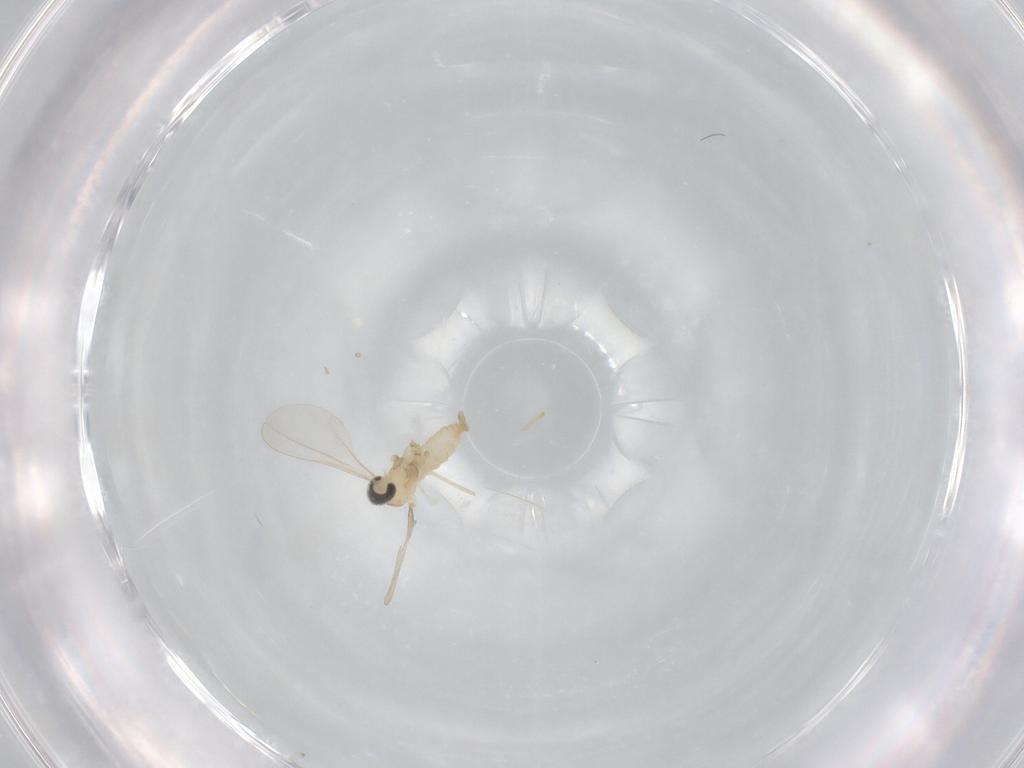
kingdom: Animalia
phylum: Arthropoda
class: Insecta
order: Diptera
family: Cecidomyiidae
